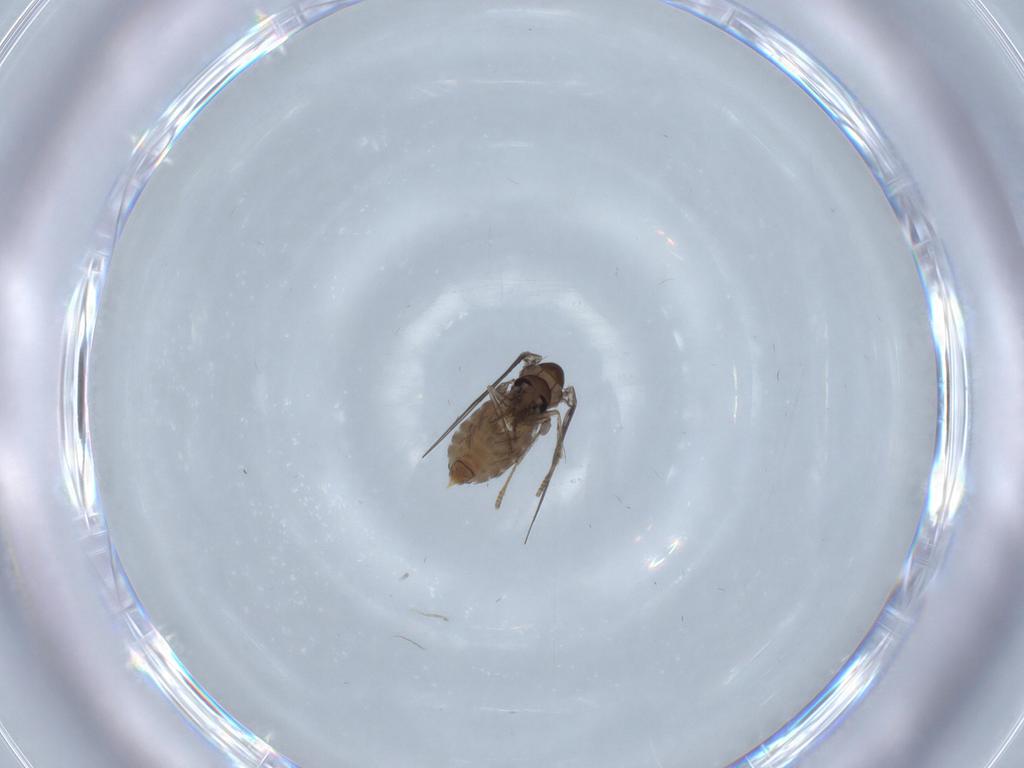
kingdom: Animalia
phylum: Arthropoda
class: Insecta
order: Diptera
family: Psychodidae
